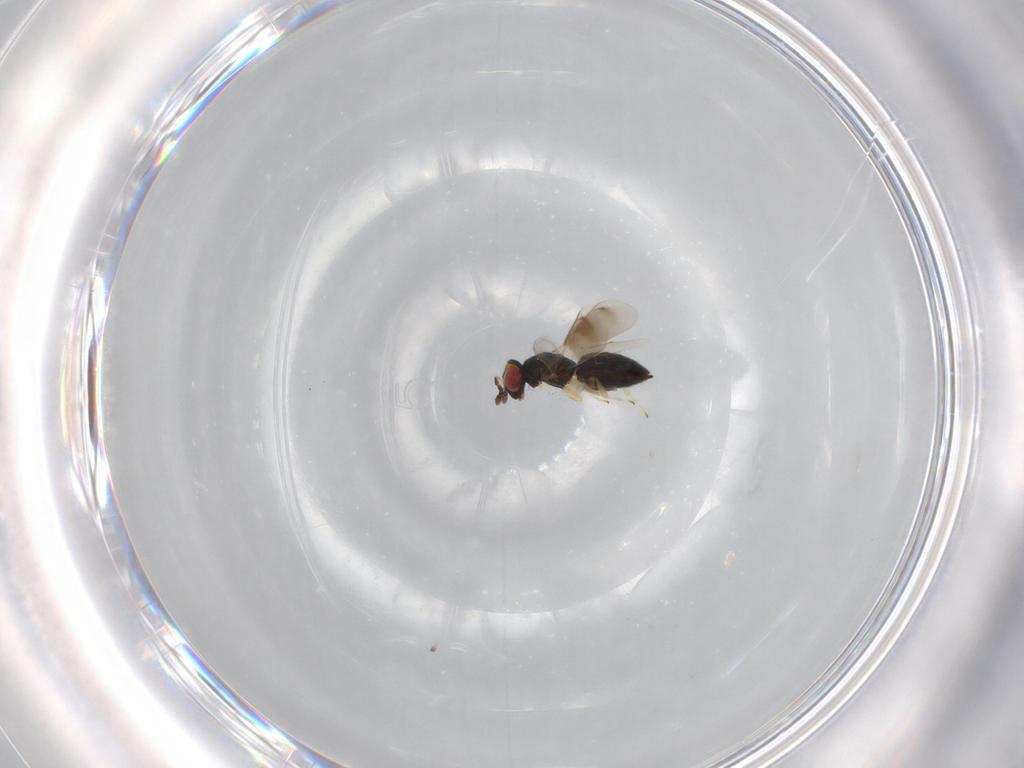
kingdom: Animalia
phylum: Arthropoda
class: Insecta
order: Hymenoptera
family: Eulophidae
